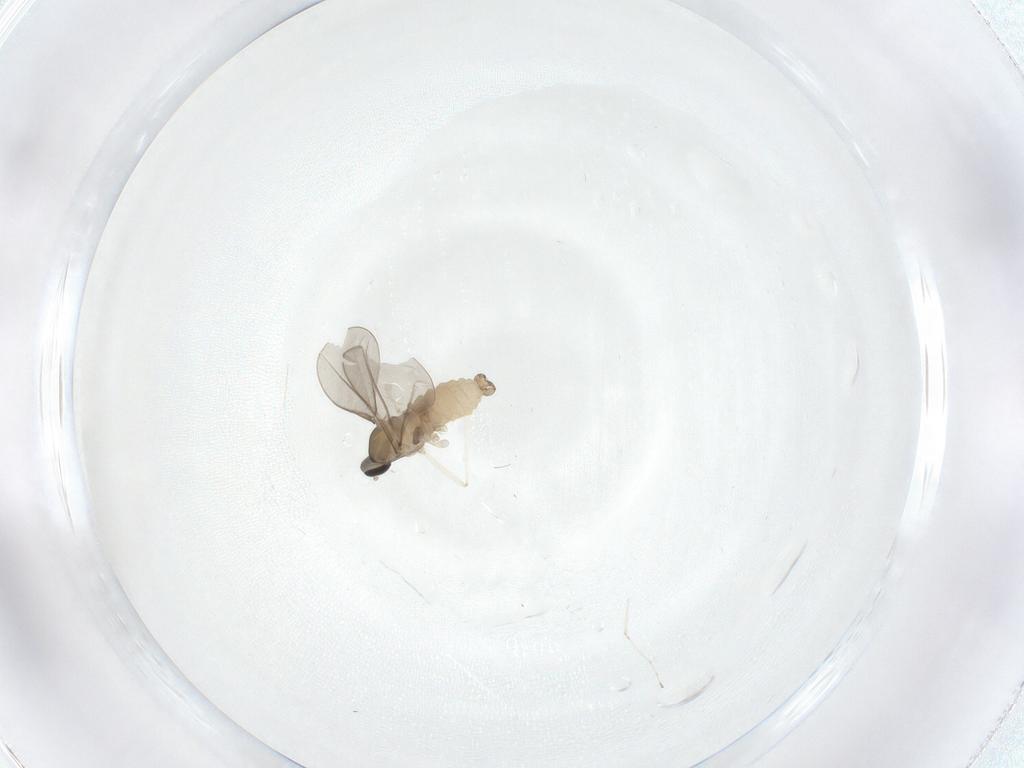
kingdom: Animalia
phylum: Arthropoda
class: Insecta
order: Diptera
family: Cecidomyiidae
